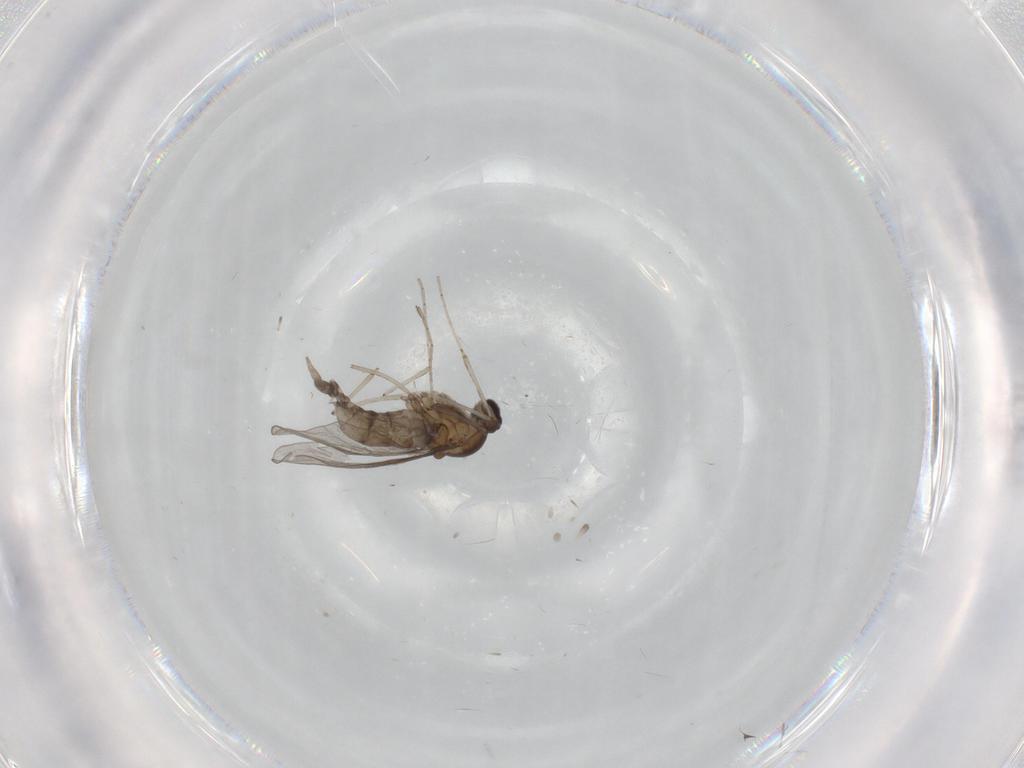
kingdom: Animalia
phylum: Arthropoda
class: Insecta
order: Diptera
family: Cecidomyiidae
